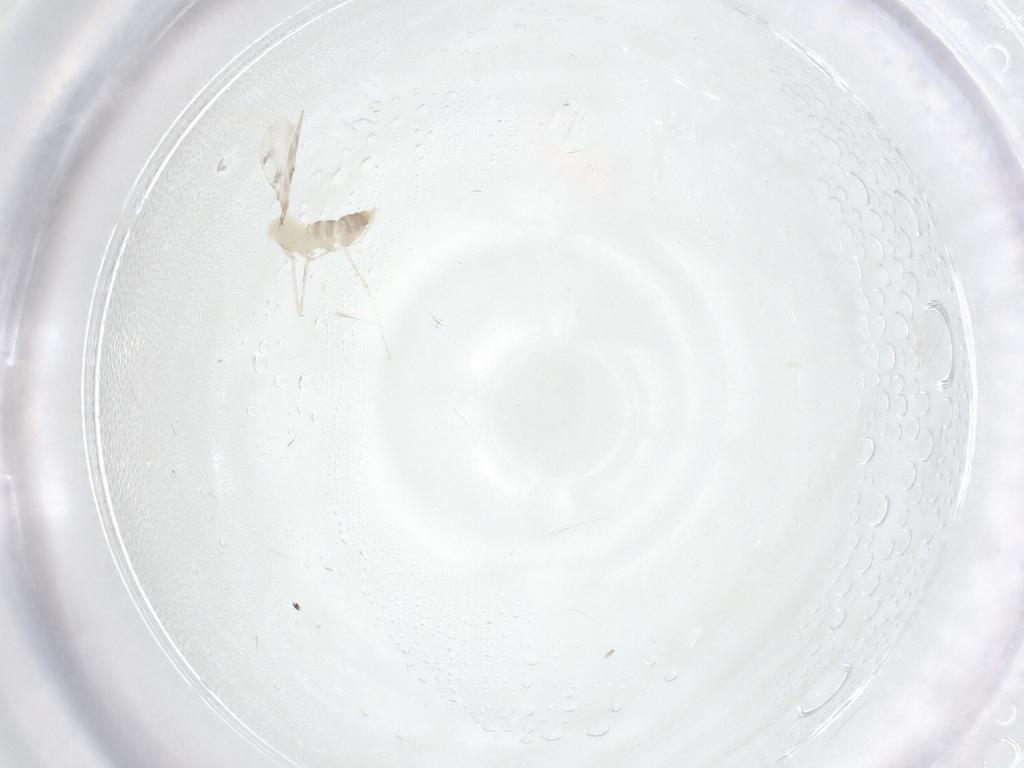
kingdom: Animalia
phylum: Arthropoda
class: Insecta
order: Diptera
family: Cecidomyiidae
